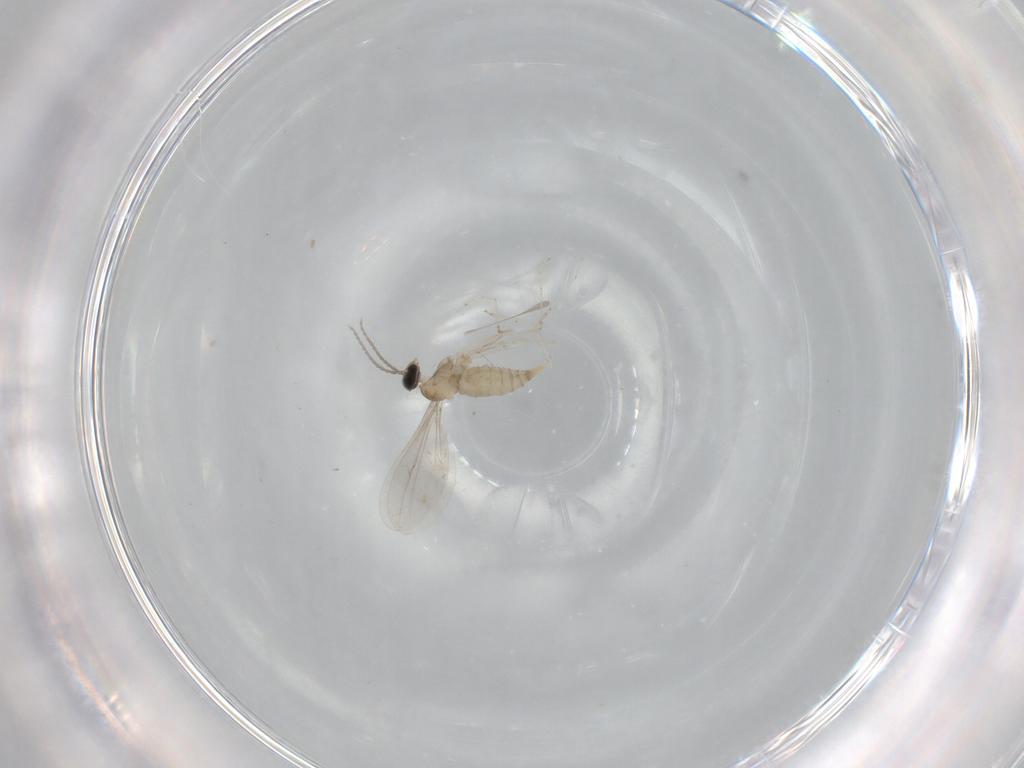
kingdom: Animalia
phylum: Arthropoda
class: Insecta
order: Diptera
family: Cecidomyiidae
